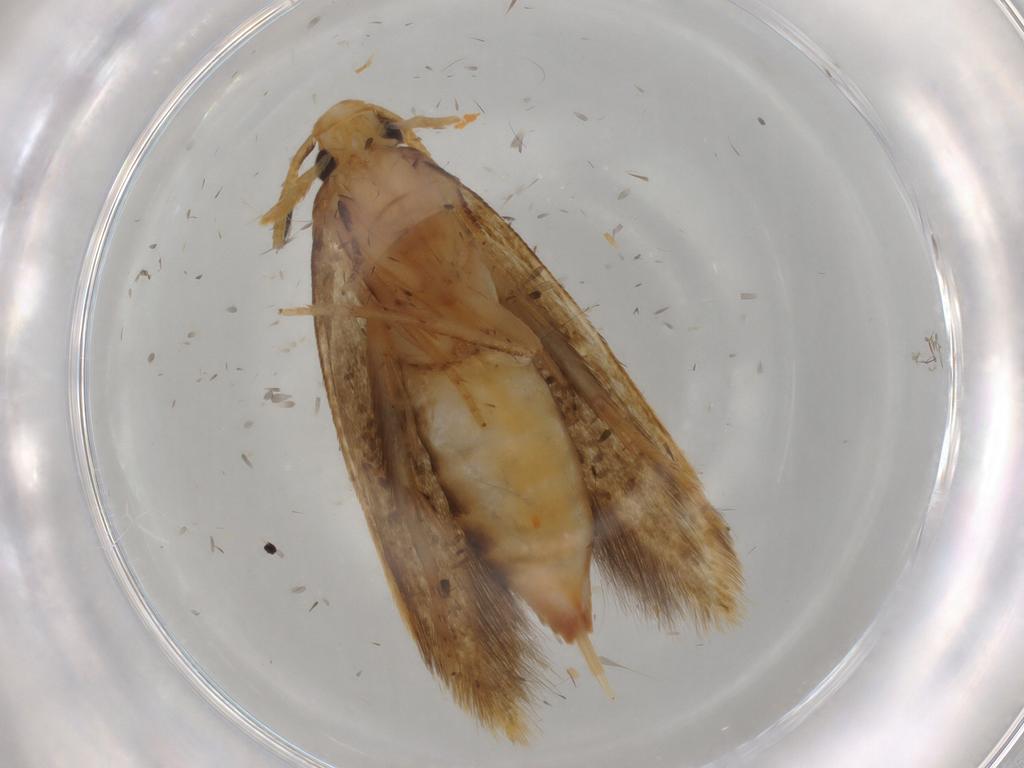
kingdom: Animalia
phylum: Arthropoda
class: Insecta
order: Lepidoptera
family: Tineidae
